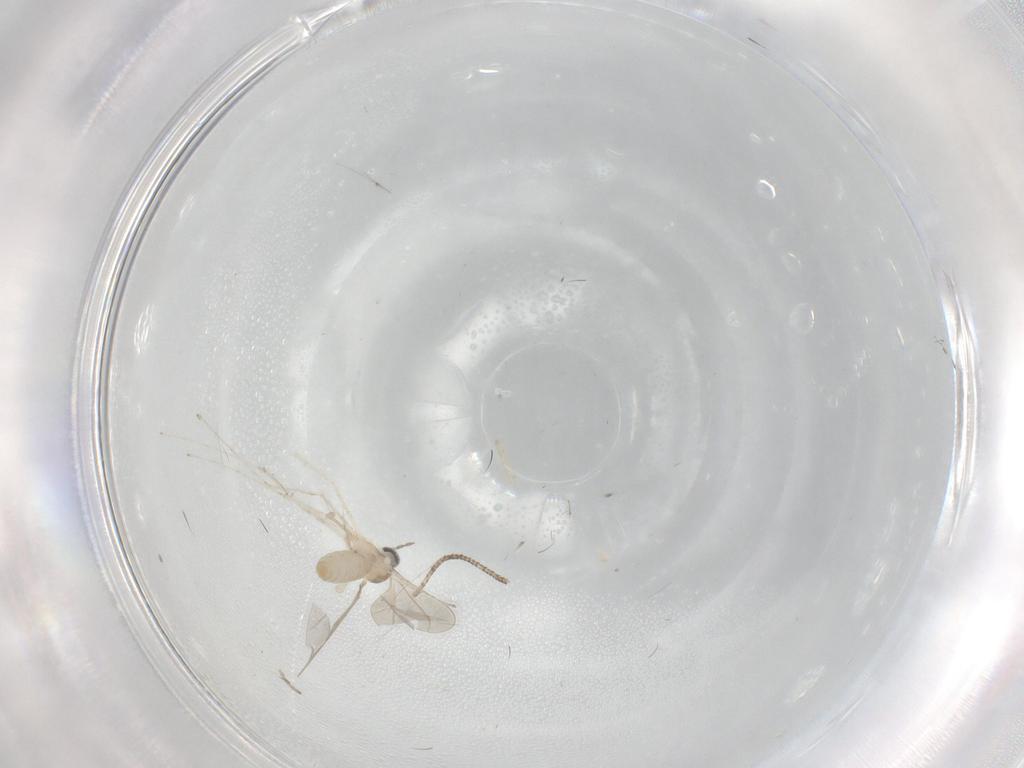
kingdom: Animalia
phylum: Arthropoda
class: Insecta
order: Diptera
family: Cecidomyiidae
